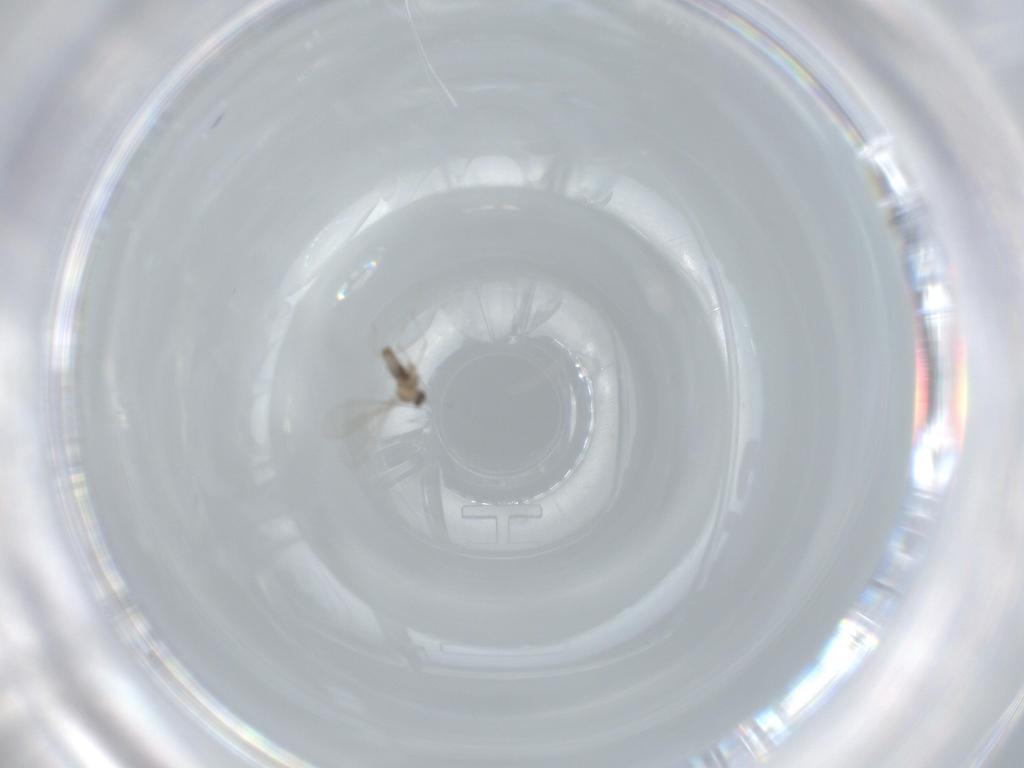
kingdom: Animalia
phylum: Arthropoda
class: Insecta
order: Diptera
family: Cecidomyiidae
